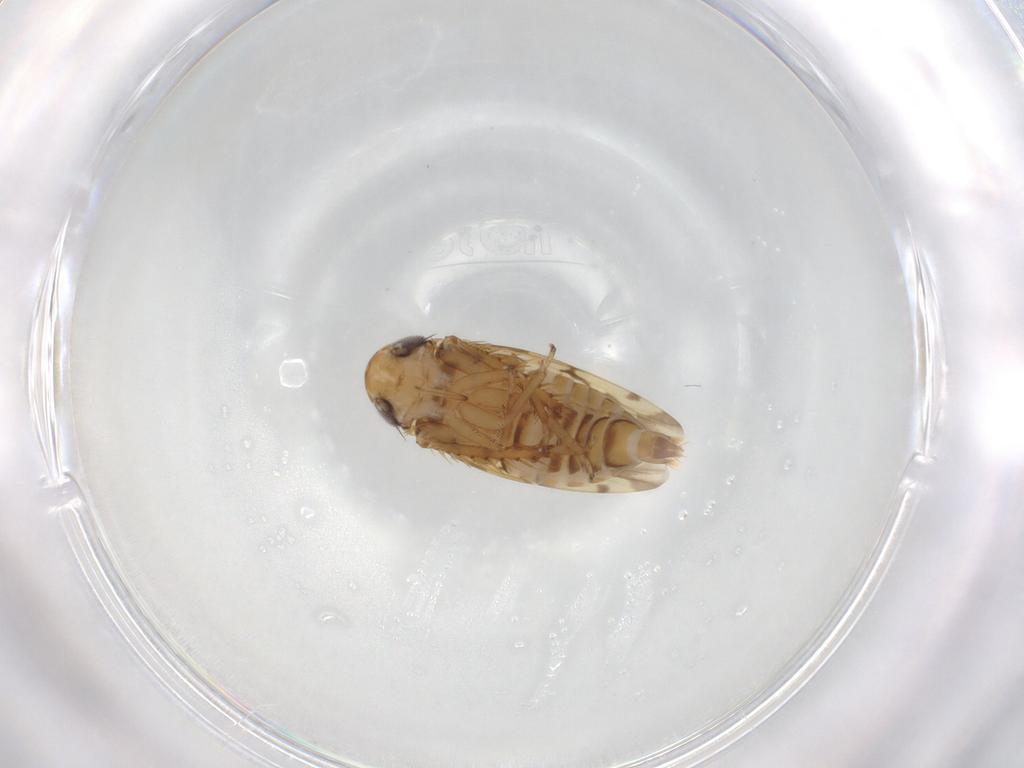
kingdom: Animalia
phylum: Arthropoda
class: Insecta
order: Hemiptera
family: Cicadellidae
